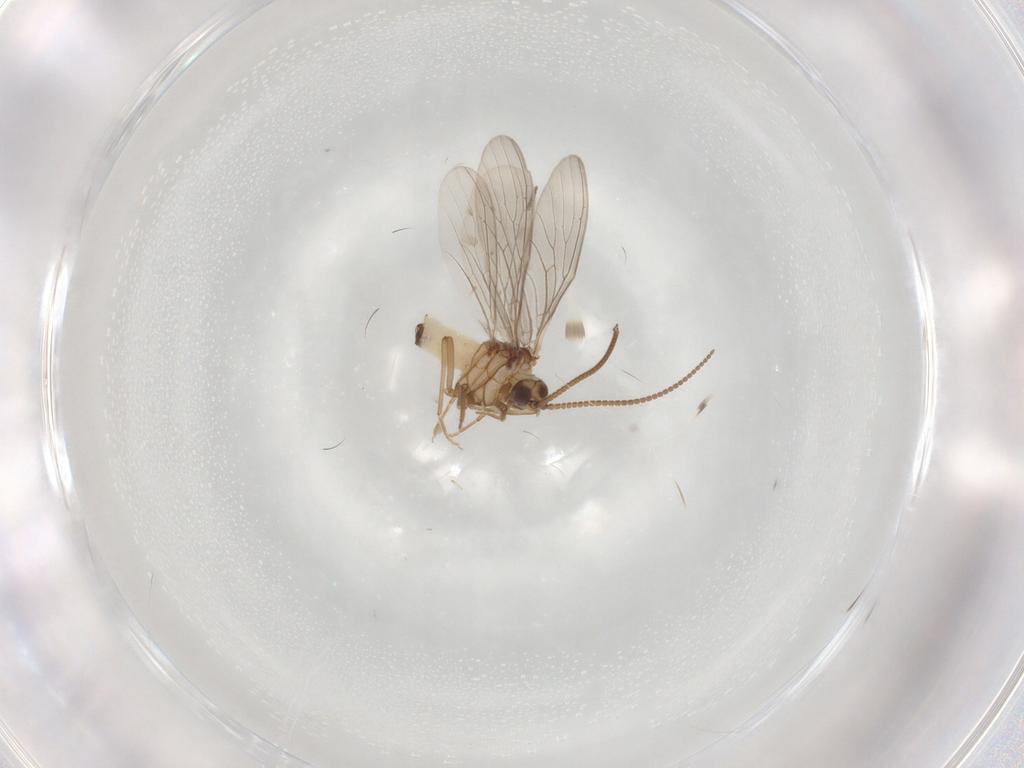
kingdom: Animalia
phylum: Arthropoda
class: Insecta
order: Neuroptera
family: Coniopterygidae
